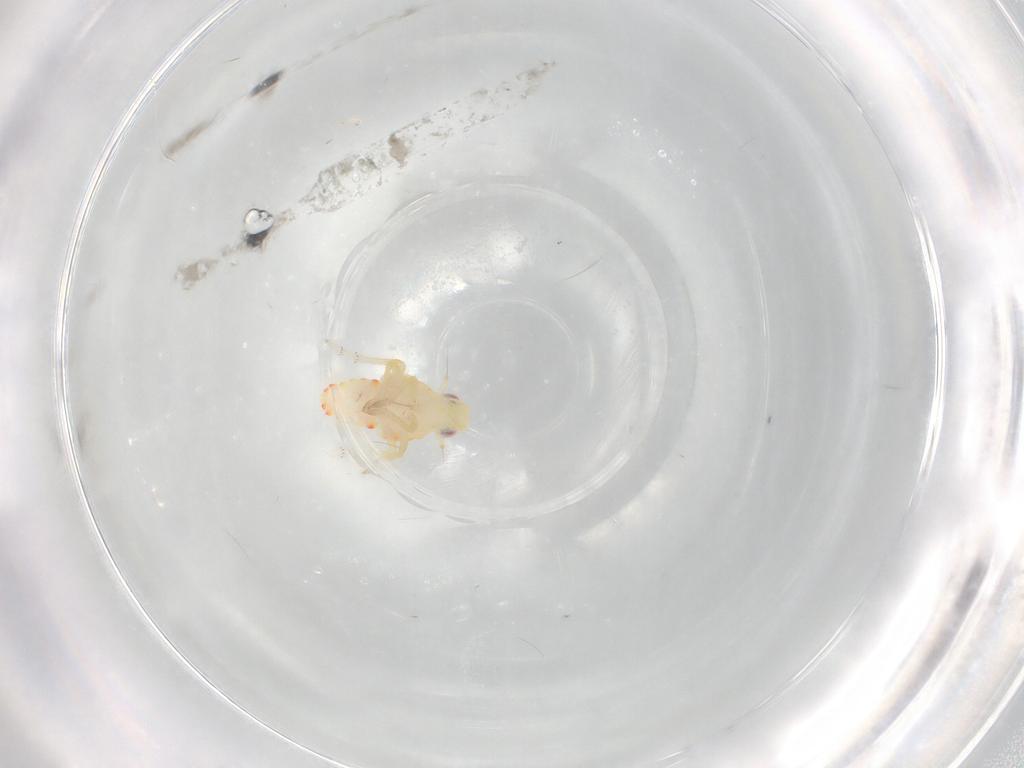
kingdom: Animalia
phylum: Arthropoda
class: Insecta
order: Hemiptera
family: Tropiduchidae
